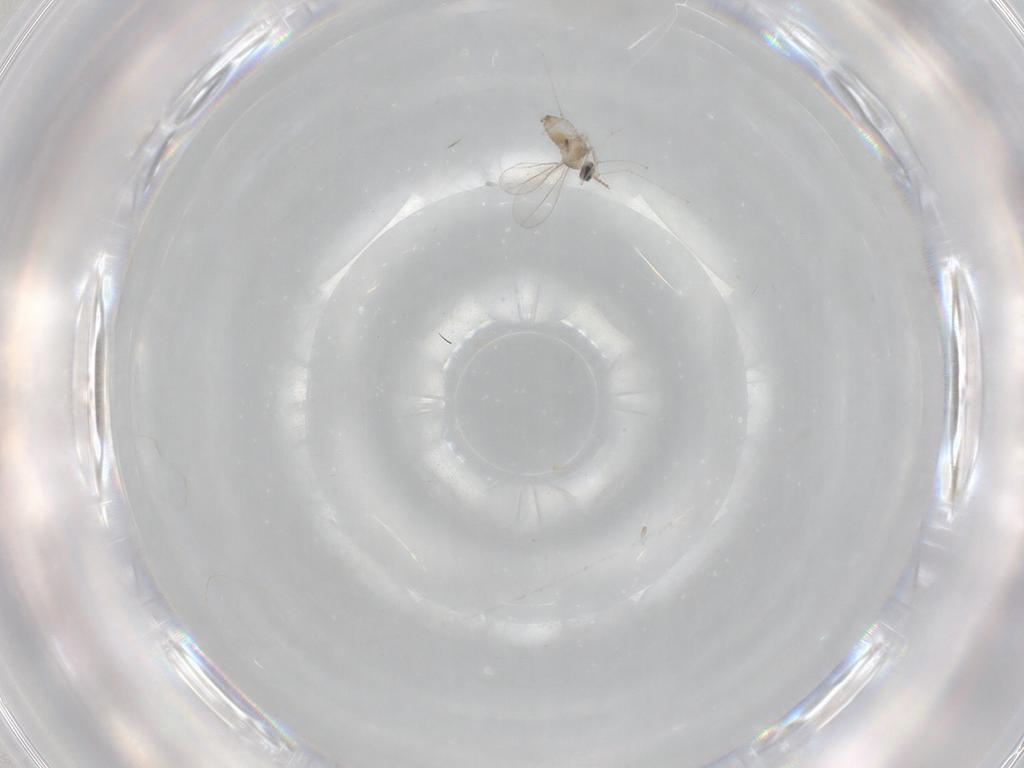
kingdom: Animalia
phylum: Arthropoda
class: Insecta
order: Diptera
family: Cecidomyiidae
